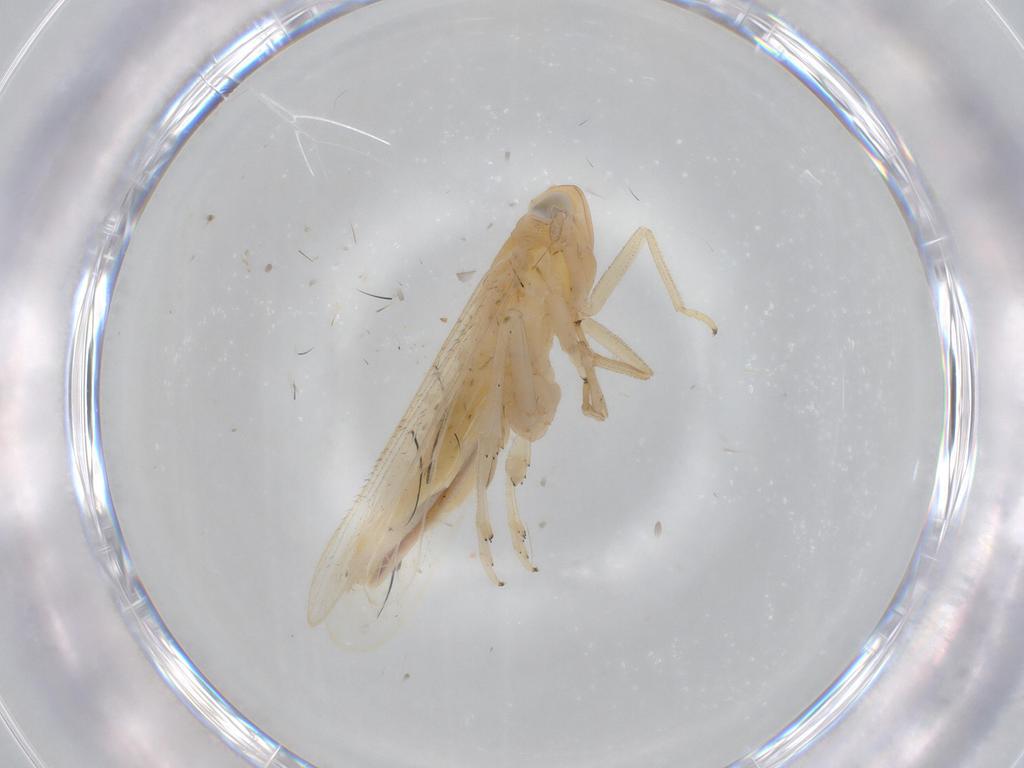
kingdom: Animalia
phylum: Arthropoda
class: Insecta
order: Hemiptera
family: Delphacidae
